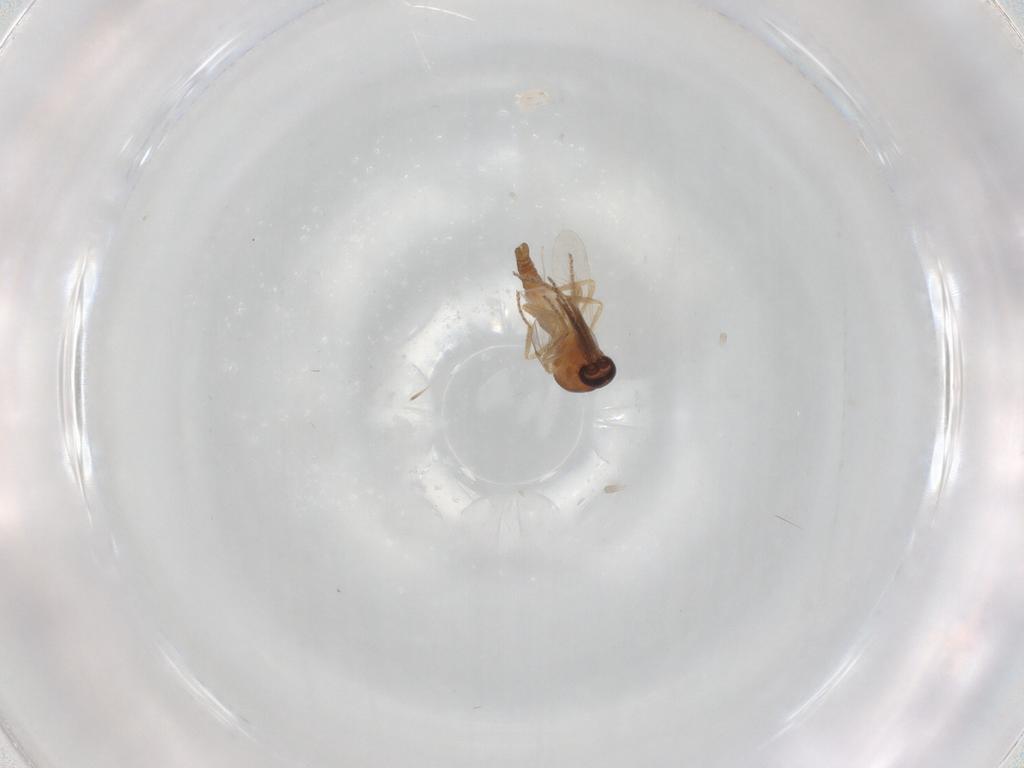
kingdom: Animalia
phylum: Arthropoda
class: Insecta
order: Diptera
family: Ceratopogonidae
